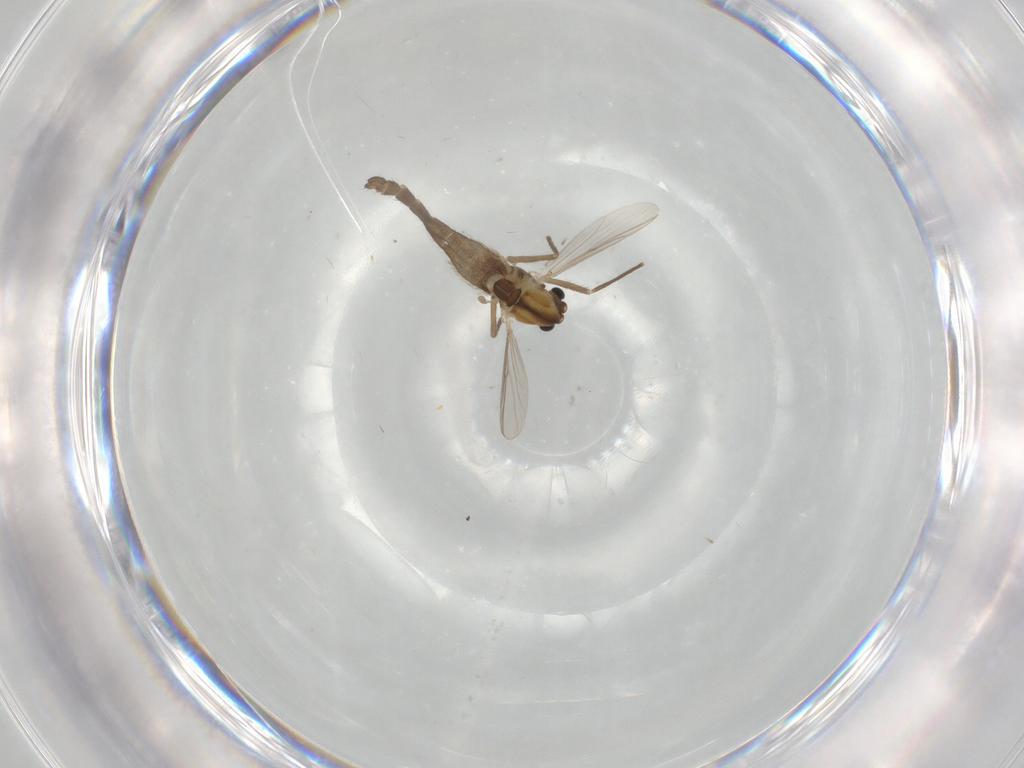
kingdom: Animalia
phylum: Arthropoda
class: Insecta
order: Diptera
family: Chironomidae
